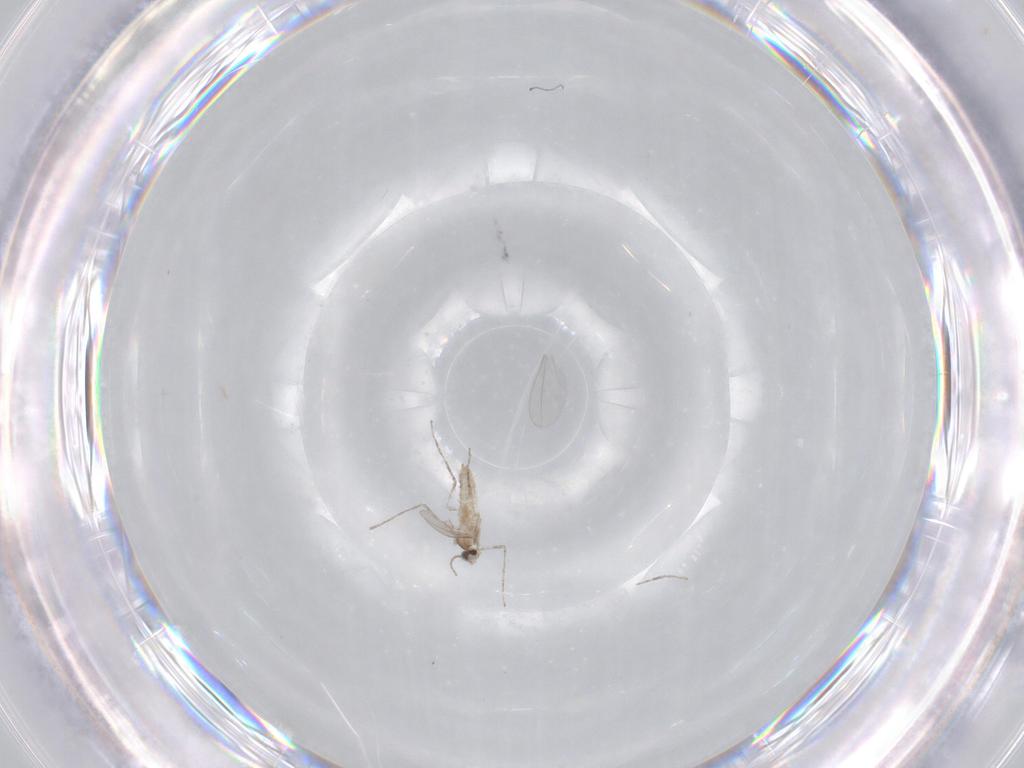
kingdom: Animalia
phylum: Arthropoda
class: Insecta
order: Diptera
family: Cecidomyiidae
